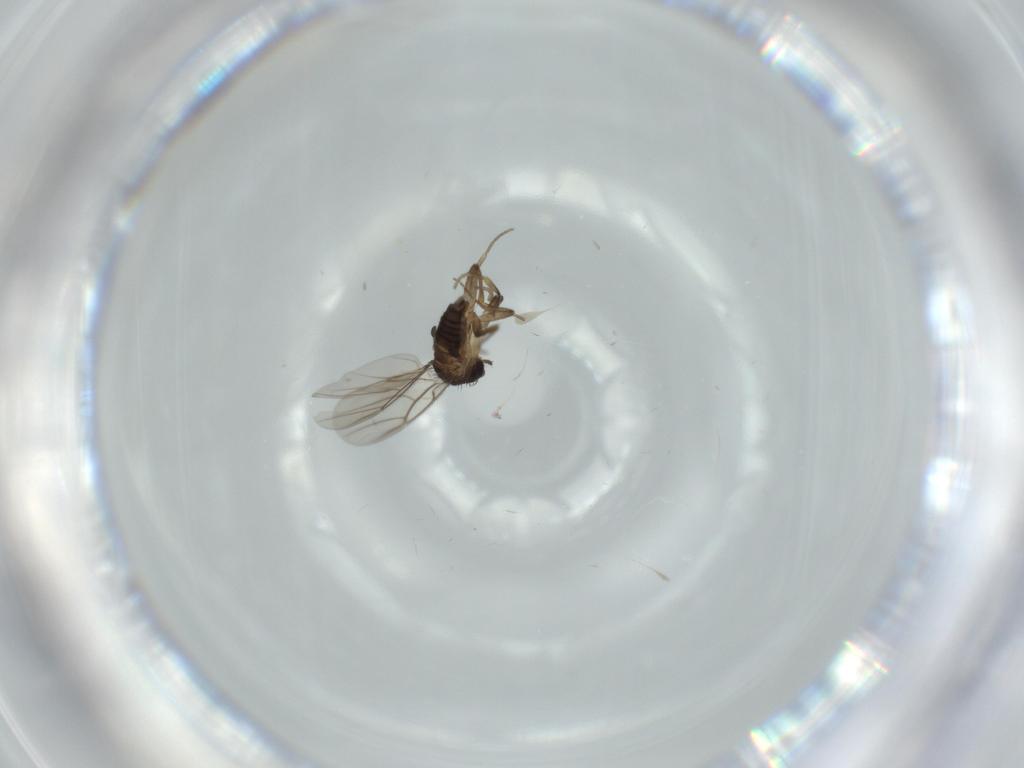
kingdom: Animalia
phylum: Arthropoda
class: Insecta
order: Diptera
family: Phoridae
